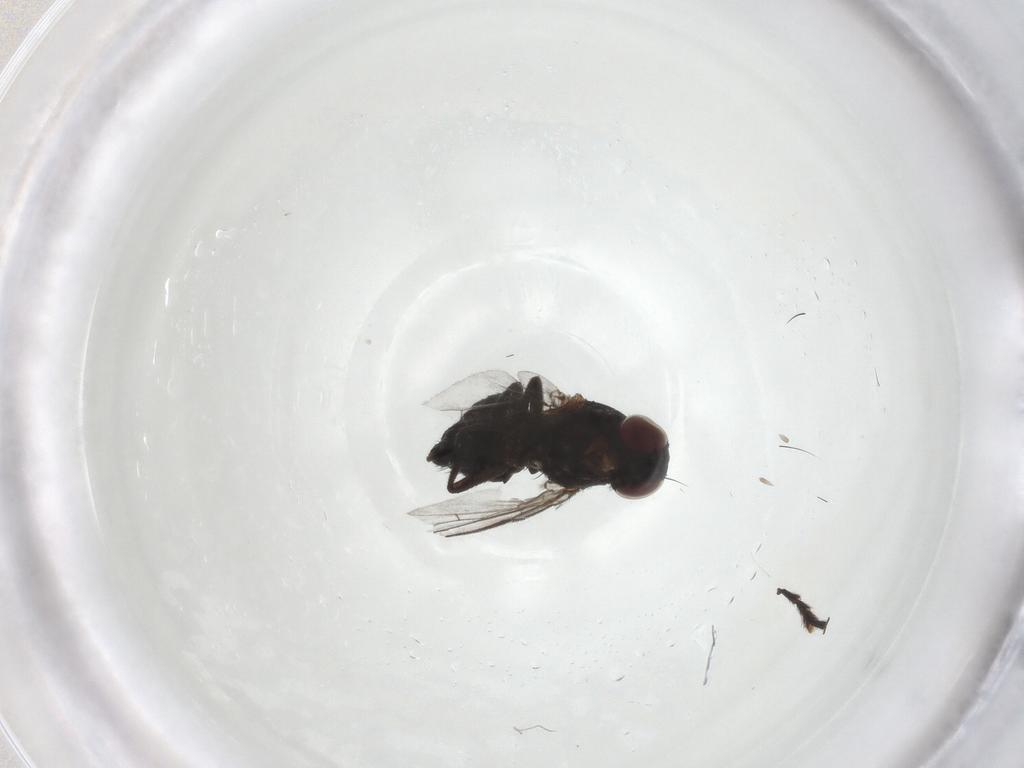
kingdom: Animalia
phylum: Arthropoda
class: Insecta
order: Diptera
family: Agromyzidae
